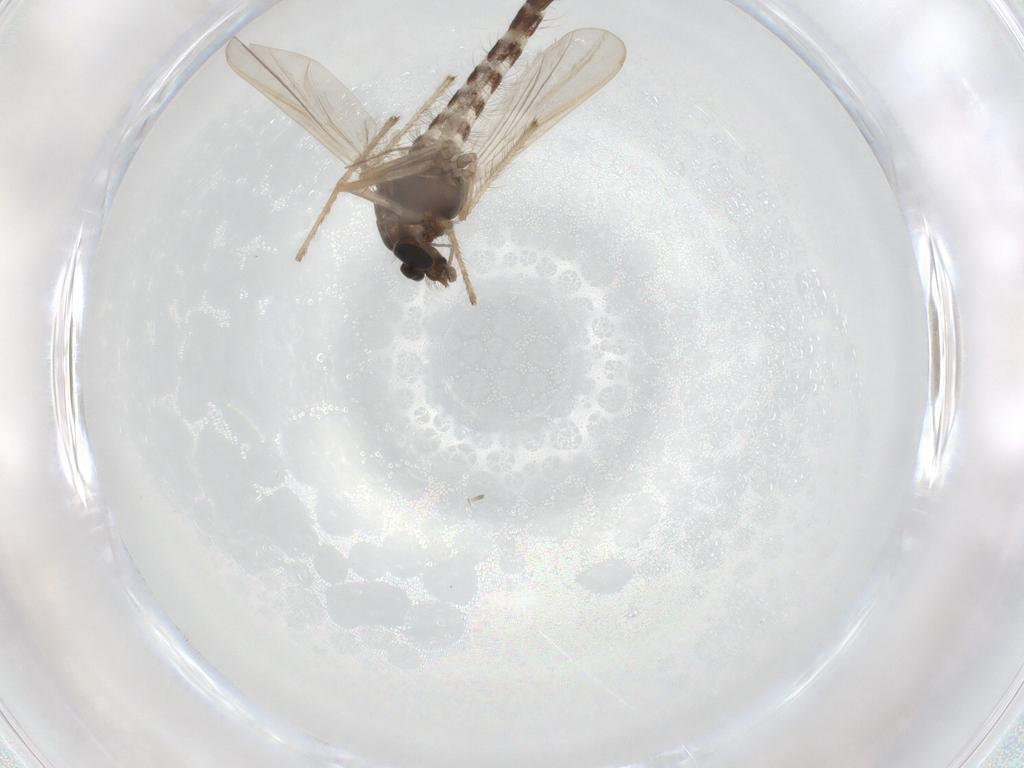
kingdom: Animalia
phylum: Arthropoda
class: Insecta
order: Diptera
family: Chironomidae
